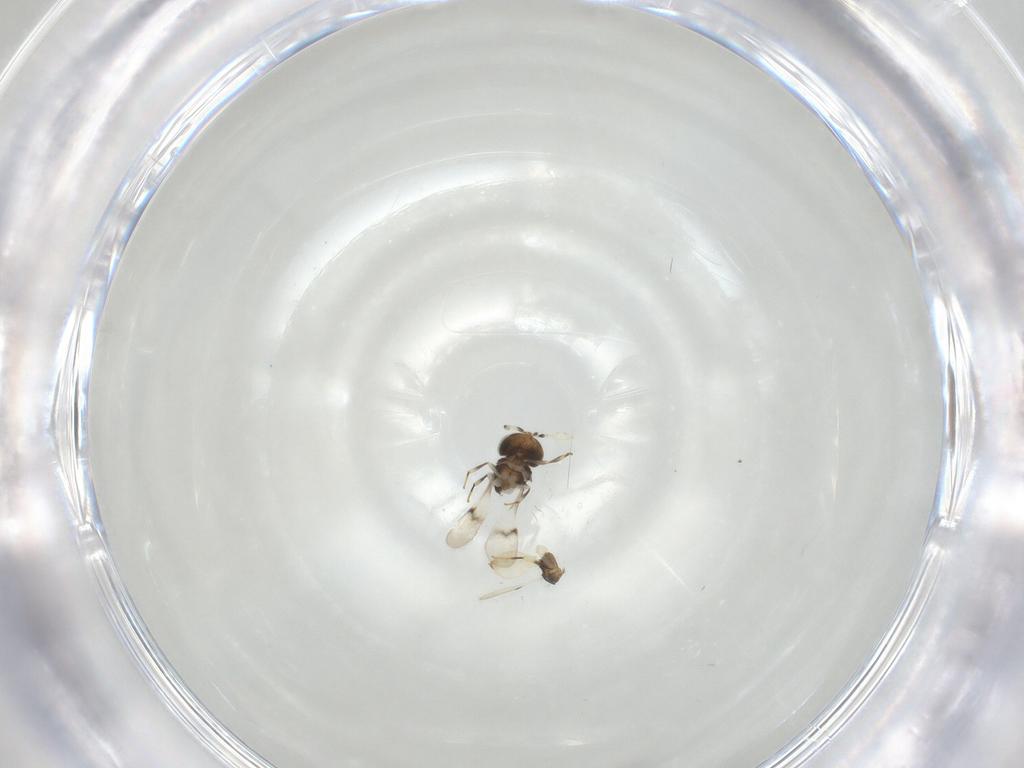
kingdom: Animalia
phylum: Arthropoda
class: Insecta
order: Hymenoptera
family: Scelionidae
